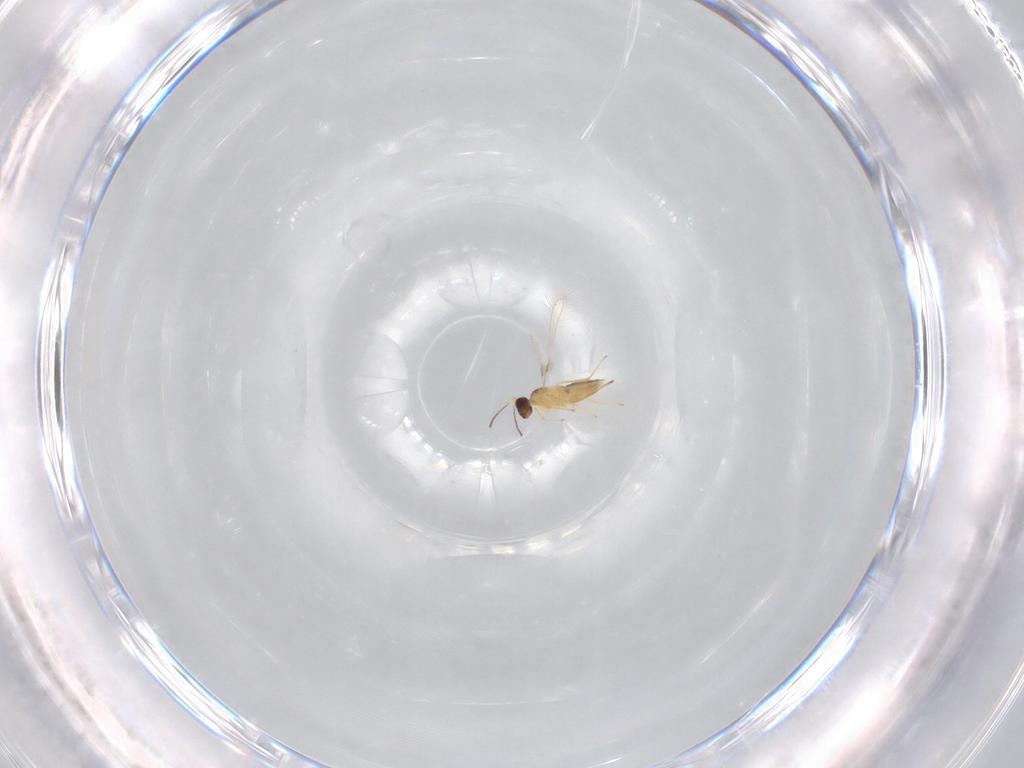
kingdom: Animalia
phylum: Arthropoda
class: Insecta
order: Hymenoptera
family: Mymaridae
